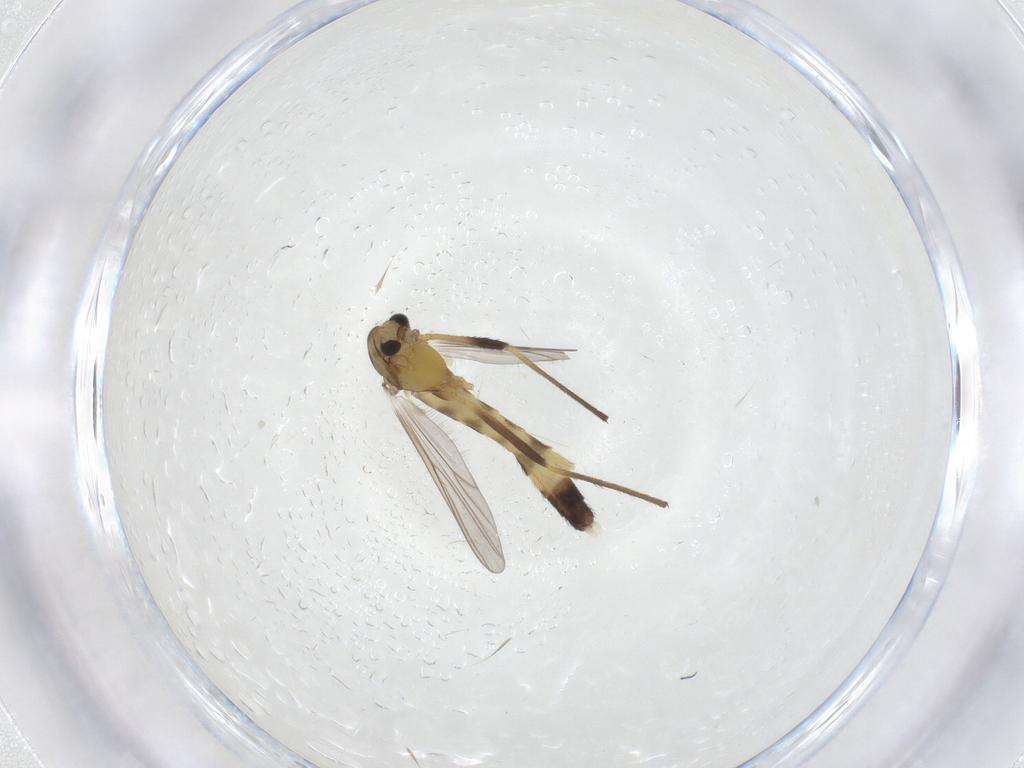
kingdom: Animalia
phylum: Arthropoda
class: Insecta
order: Diptera
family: Chironomidae
